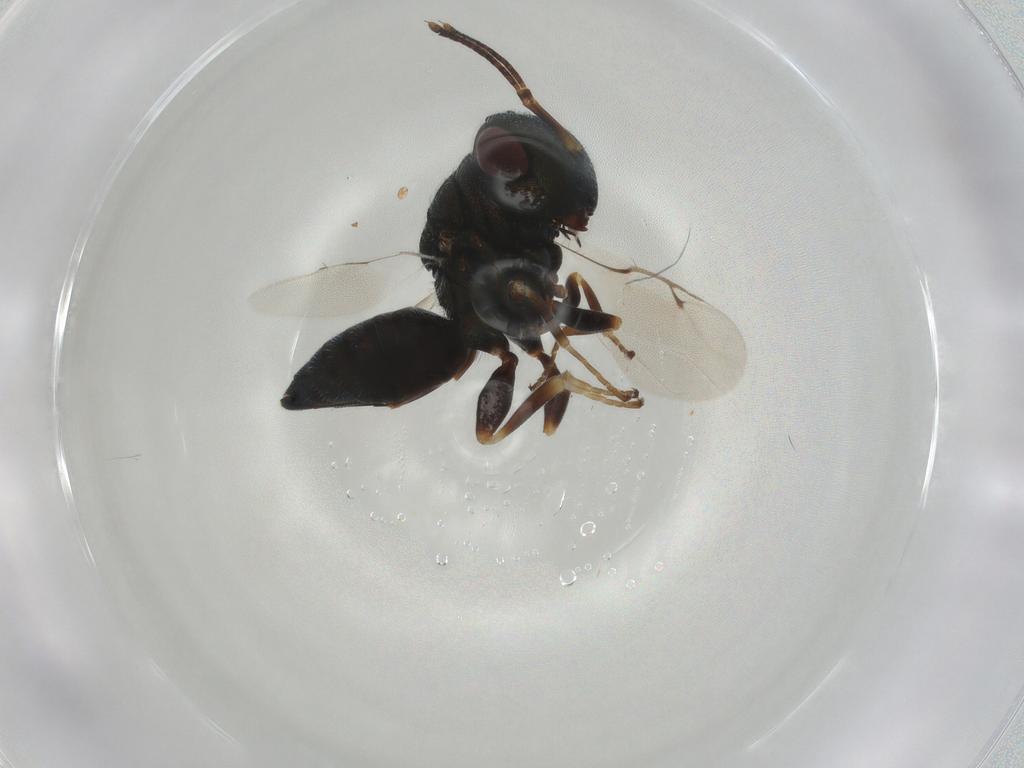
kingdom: Animalia
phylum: Arthropoda
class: Insecta
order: Hymenoptera
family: Pteromalidae
